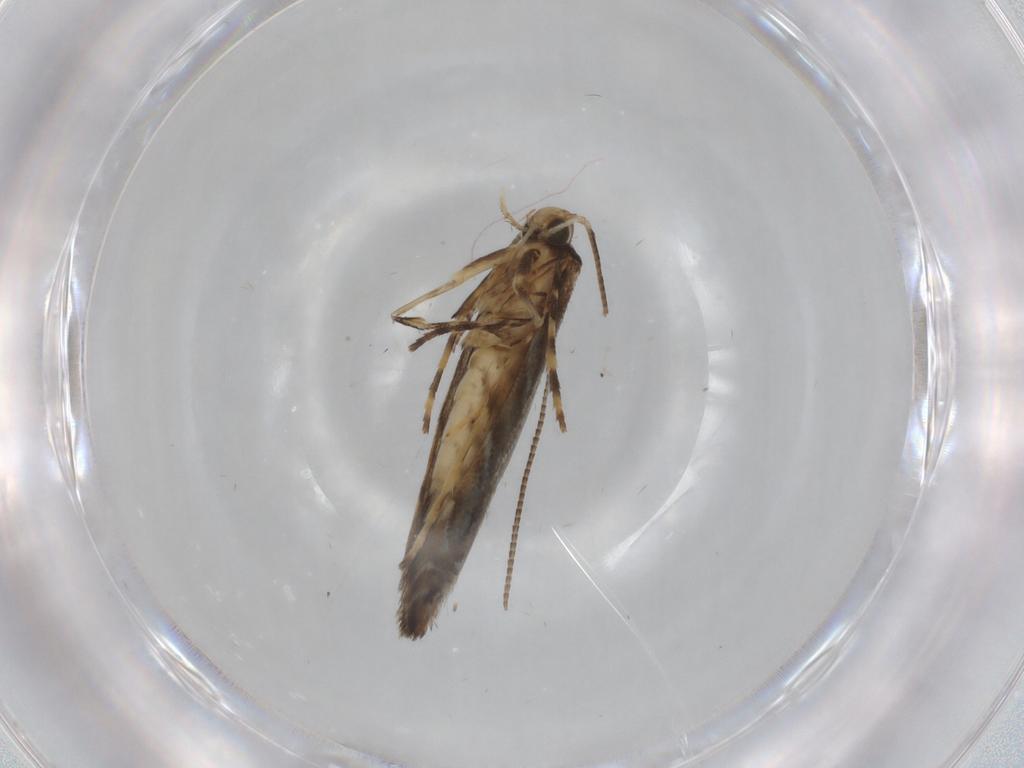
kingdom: Animalia
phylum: Arthropoda
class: Insecta
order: Lepidoptera
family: Gracillariidae
